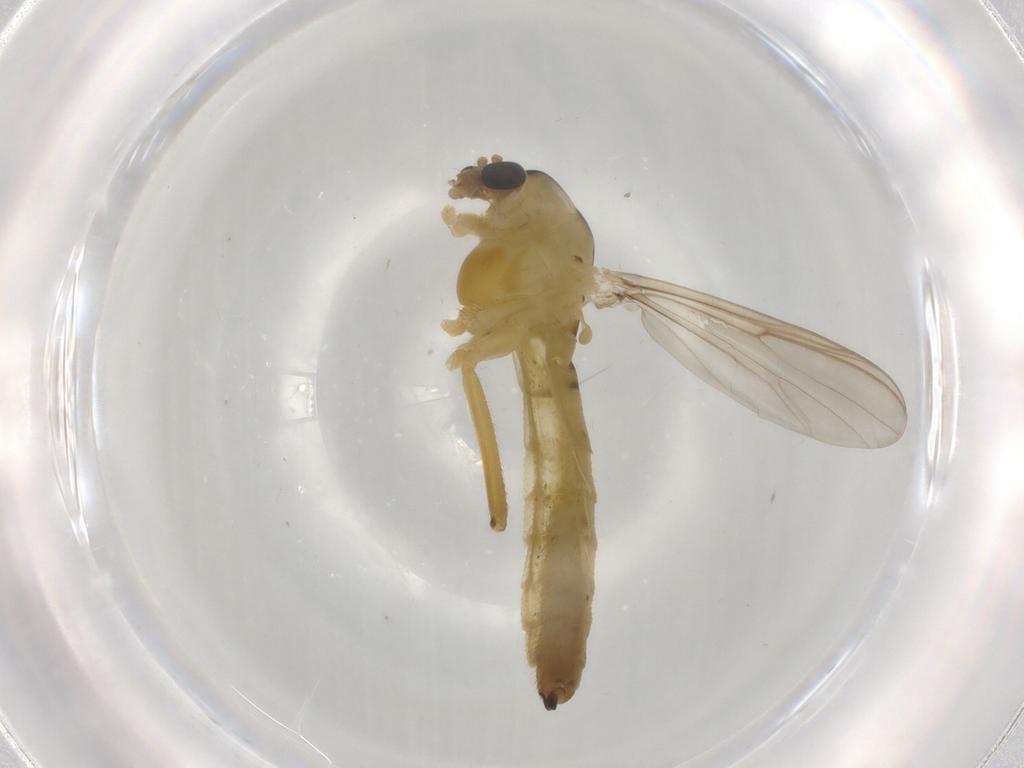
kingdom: Animalia
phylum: Arthropoda
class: Insecta
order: Diptera
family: Chironomidae
